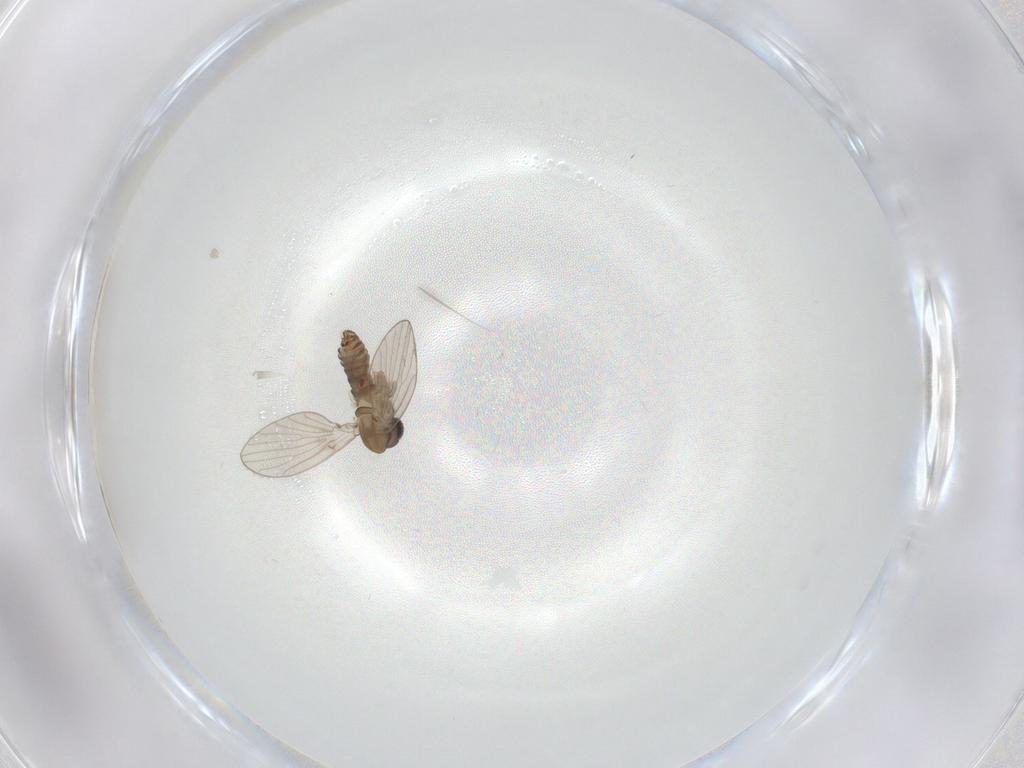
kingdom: Animalia
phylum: Arthropoda
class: Insecta
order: Diptera
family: Psychodidae
